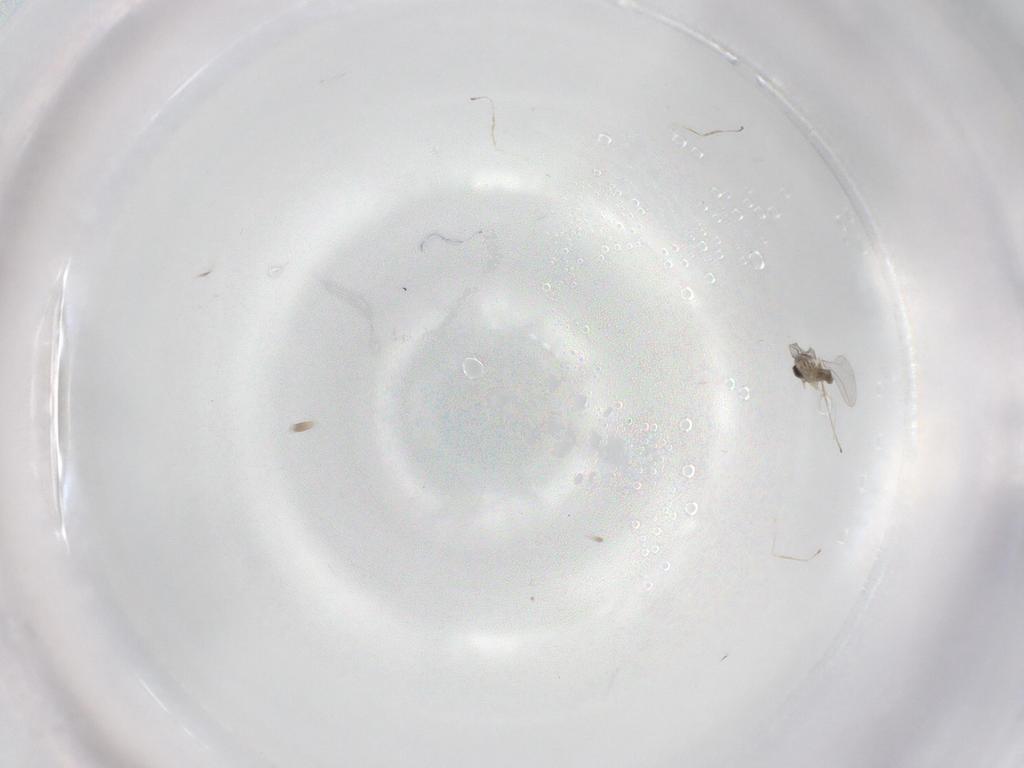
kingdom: Animalia
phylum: Arthropoda
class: Insecta
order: Diptera
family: Cecidomyiidae
